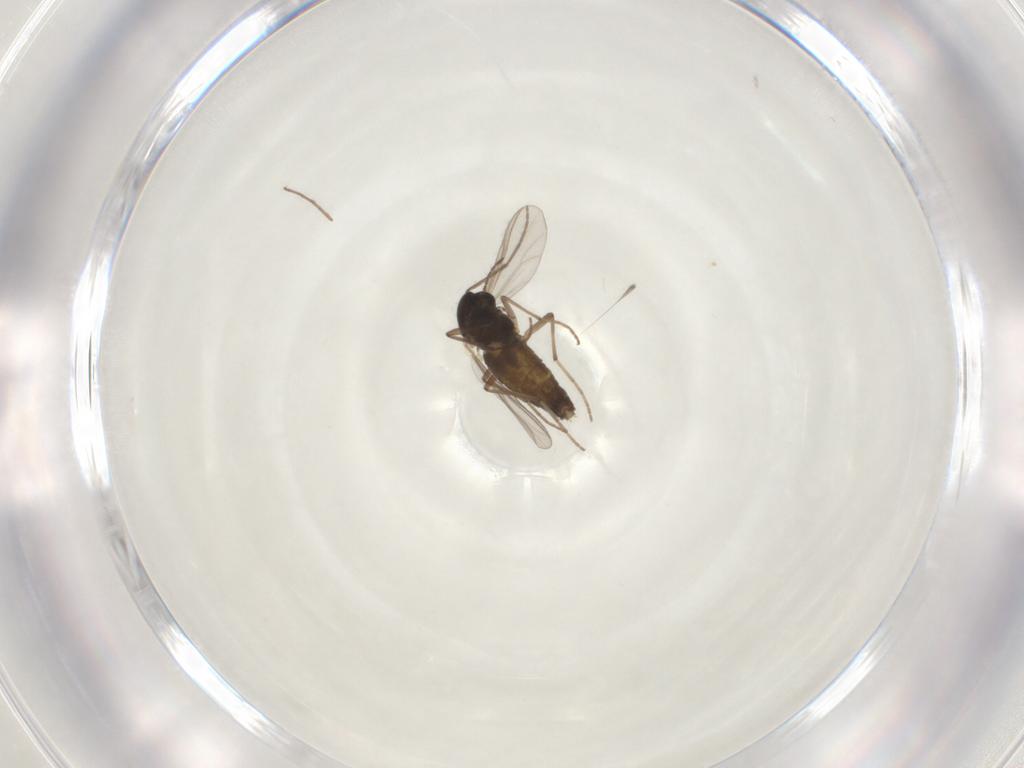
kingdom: Animalia
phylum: Arthropoda
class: Insecta
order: Diptera
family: Chironomidae
